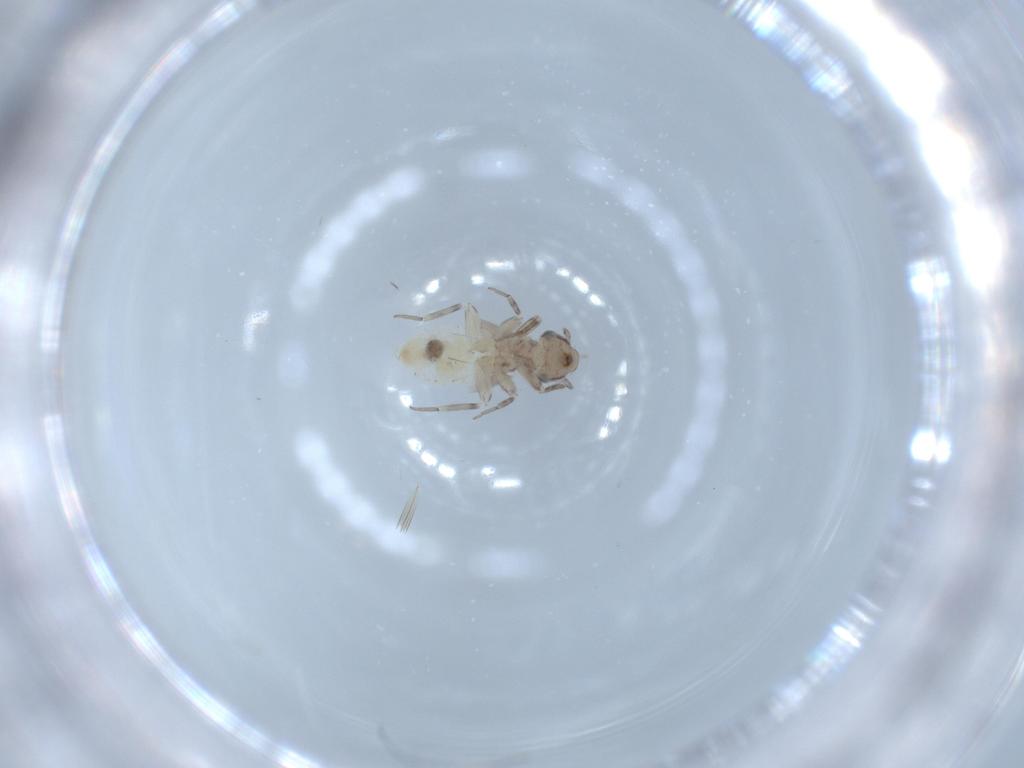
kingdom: Animalia
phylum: Arthropoda
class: Insecta
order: Psocodea
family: Lepidopsocidae
